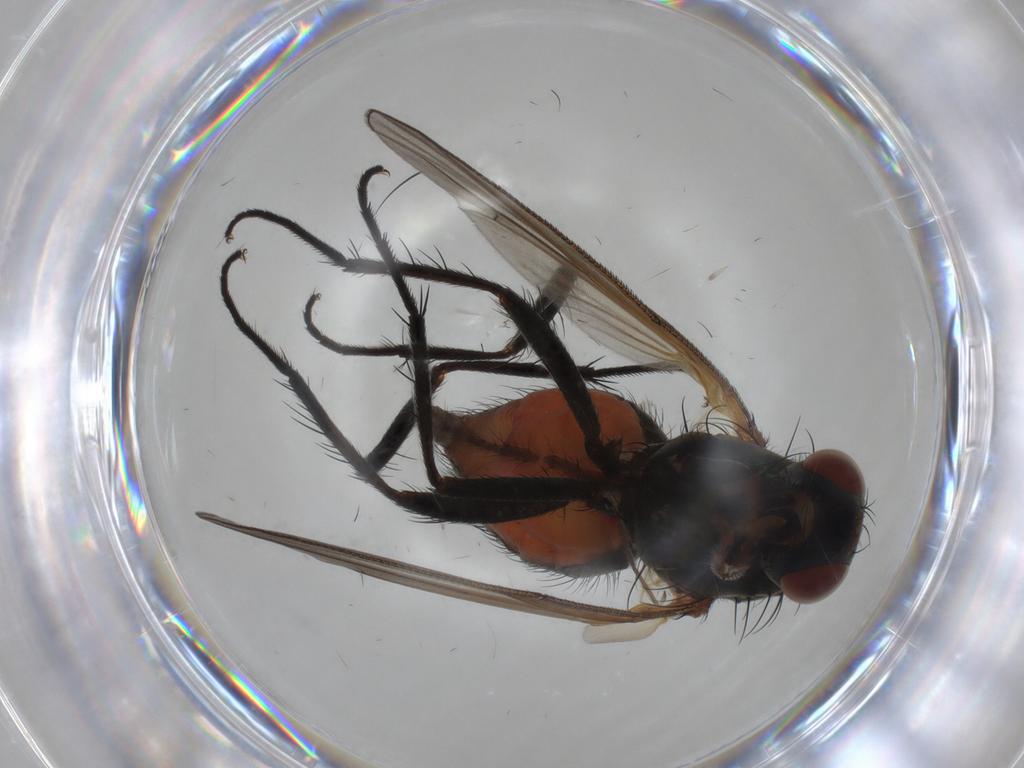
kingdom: Animalia
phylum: Arthropoda
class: Insecta
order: Diptera
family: Anthomyiidae
